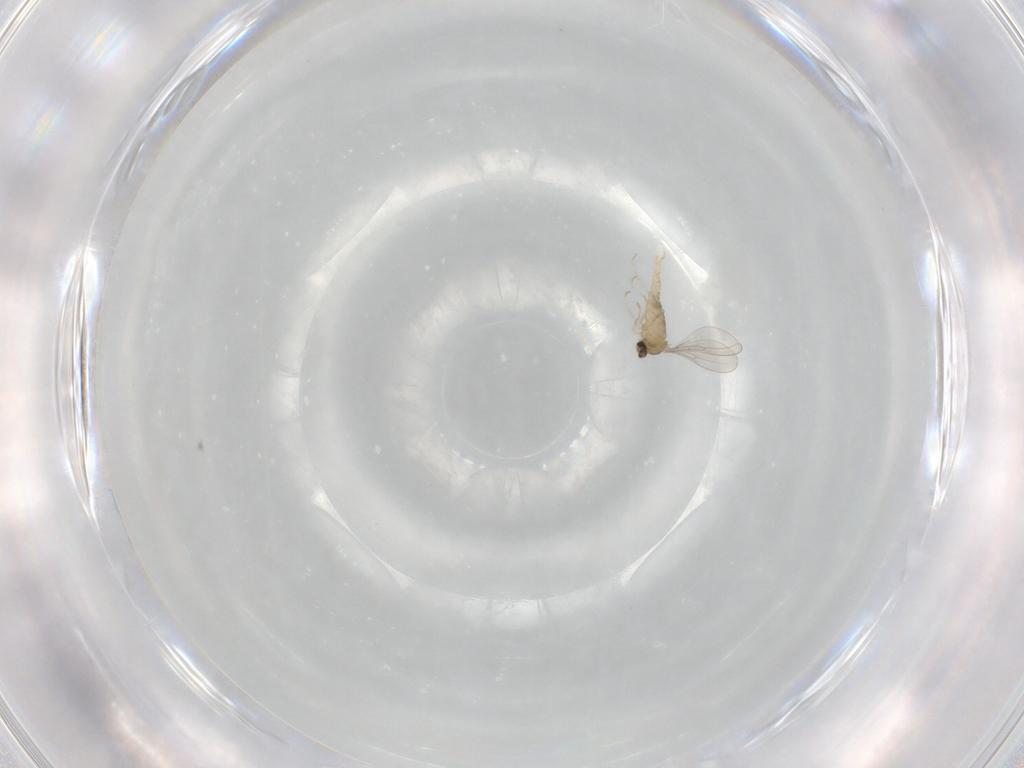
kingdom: Animalia
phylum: Arthropoda
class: Insecta
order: Diptera
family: Cecidomyiidae
